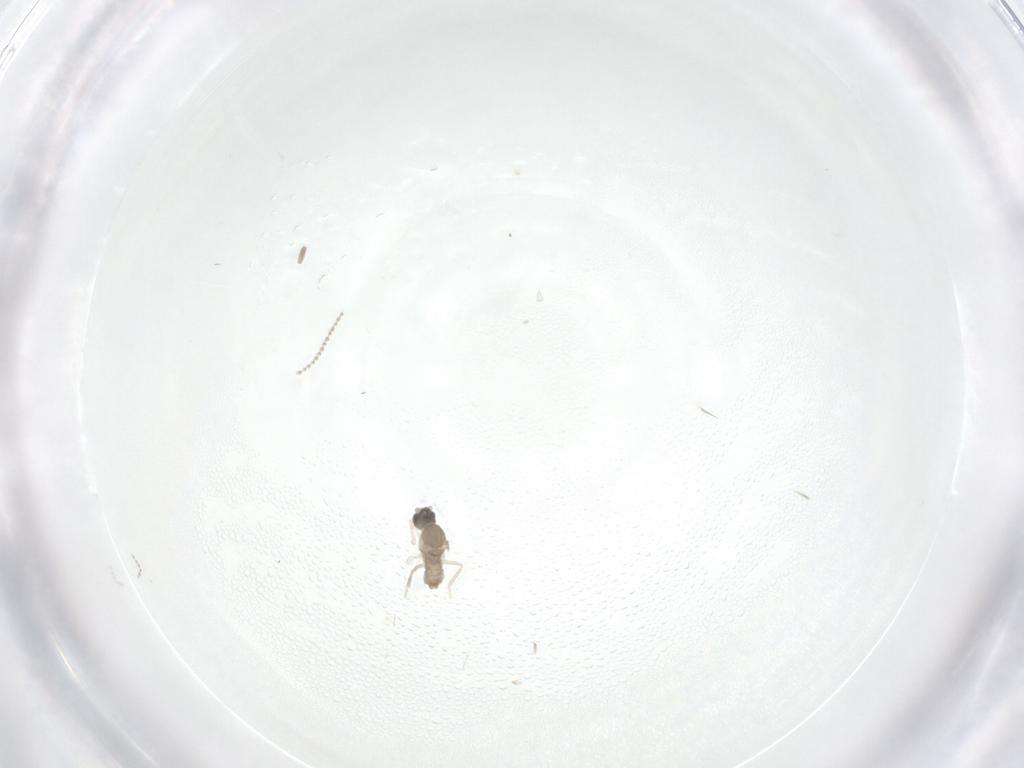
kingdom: Animalia
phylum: Arthropoda
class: Insecta
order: Diptera
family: Cecidomyiidae
